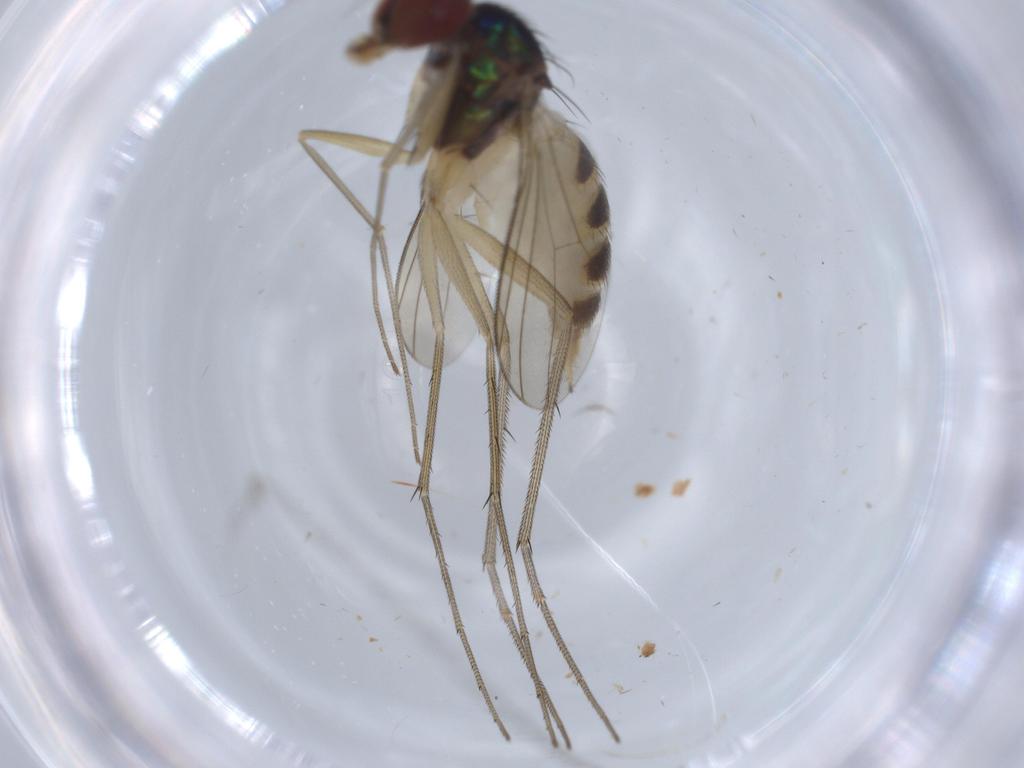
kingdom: Animalia
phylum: Arthropoda
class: Insecta
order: Diptera
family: Dolichopodidae
